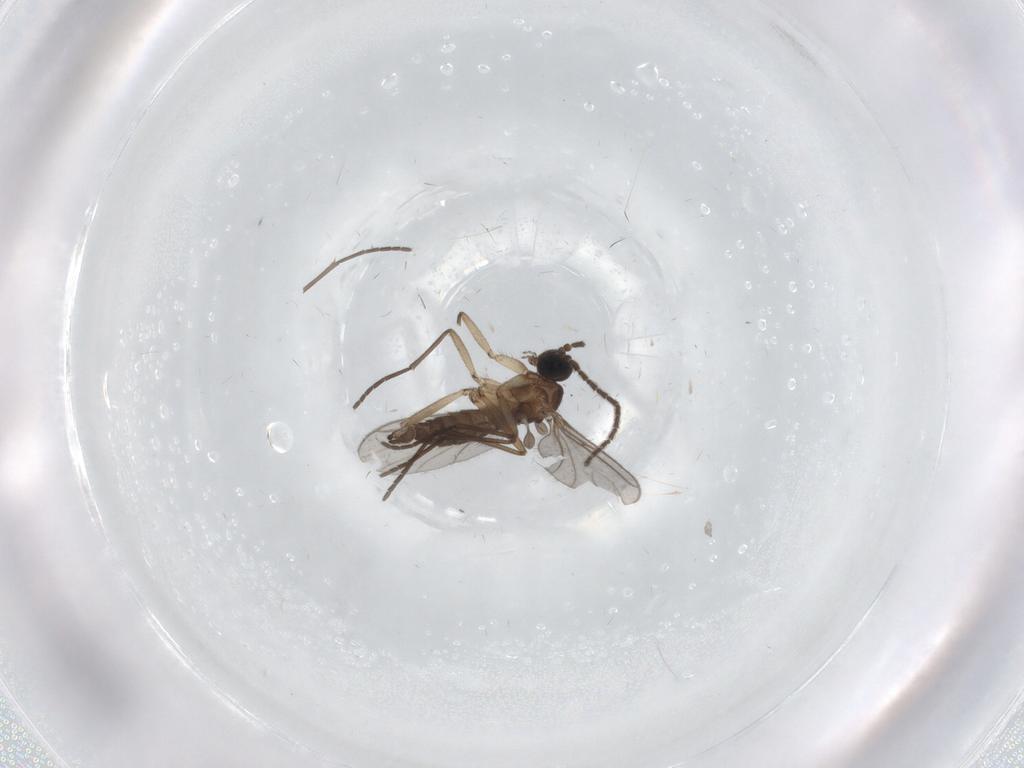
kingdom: Animalia
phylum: Arthropoda
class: Insecta
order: Diptera
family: Sciaridae
